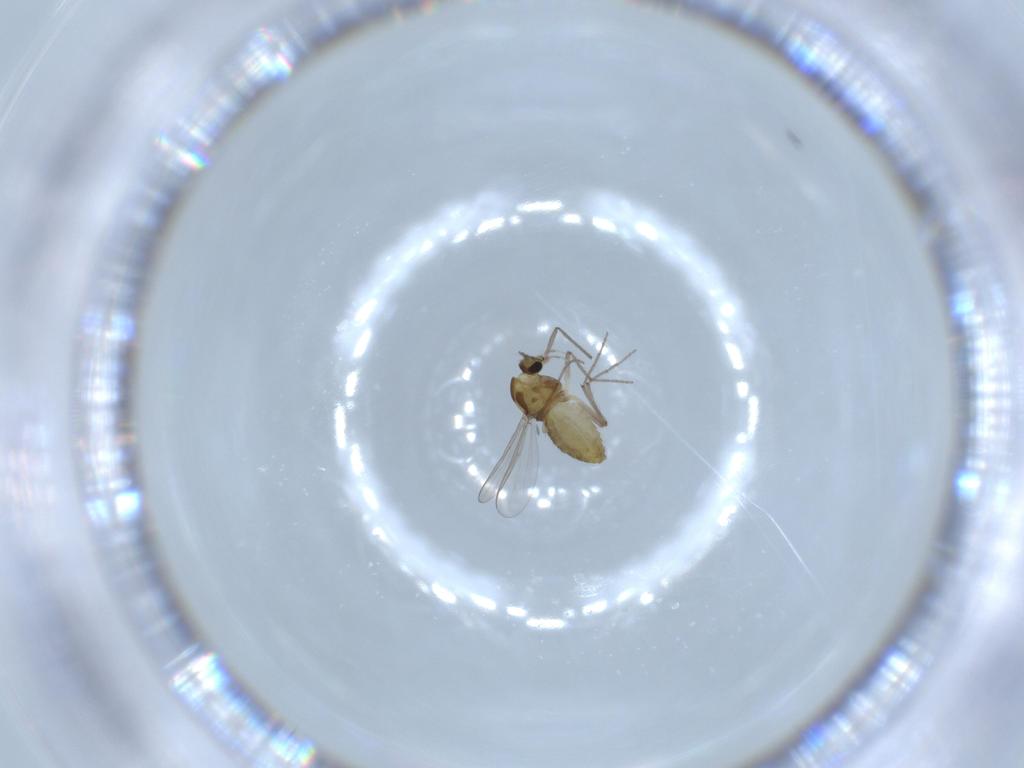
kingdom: Animalia
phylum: Arthropoda
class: Insecta
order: Diptera
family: Chironomidae
